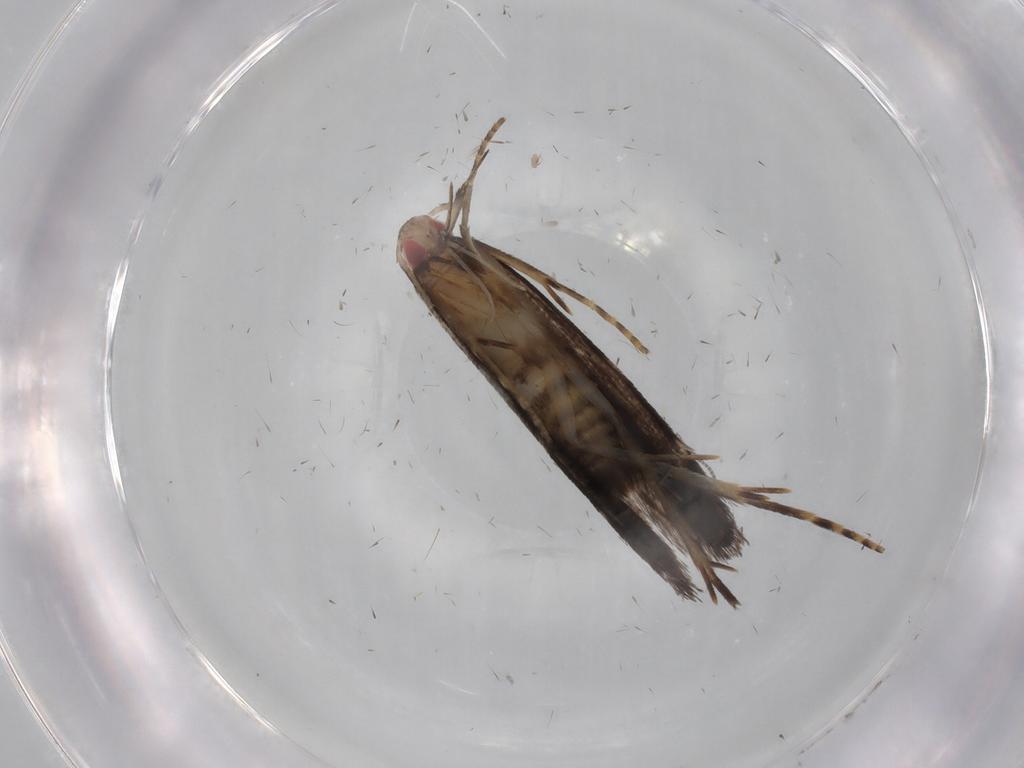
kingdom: Animalia
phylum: Arthropoda
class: Insecta
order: Lepidoptera
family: Gelechiidae
